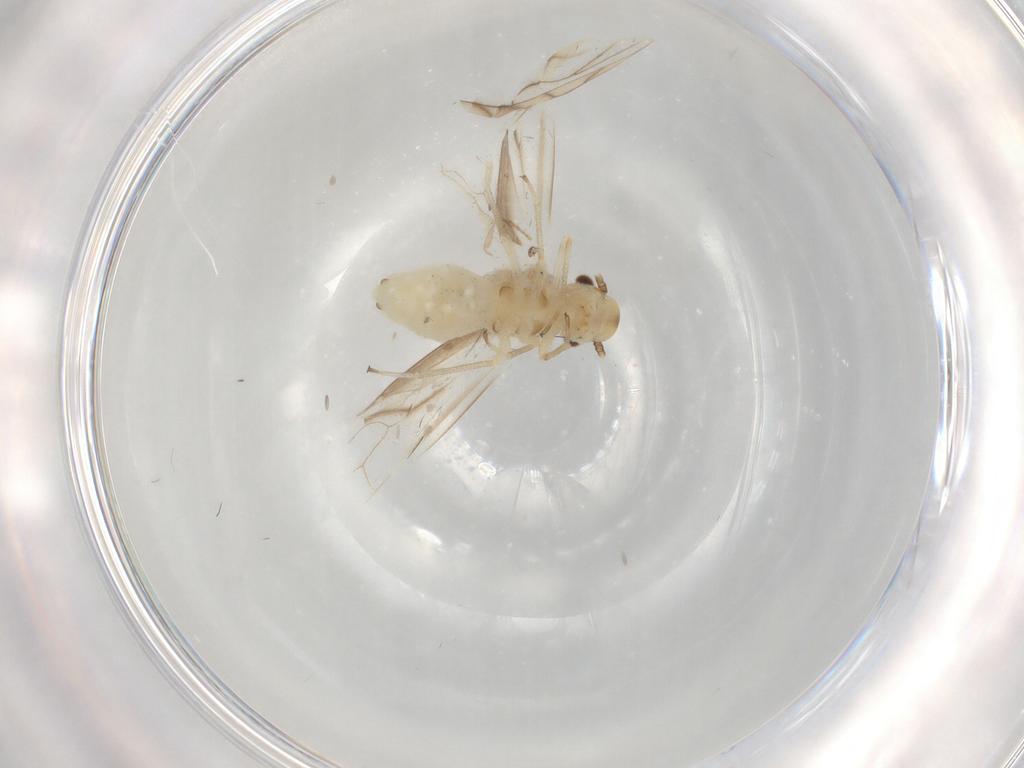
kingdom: Animalia
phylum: Arthropoda
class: Insecta
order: Psocodea
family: Caeciliusidae
